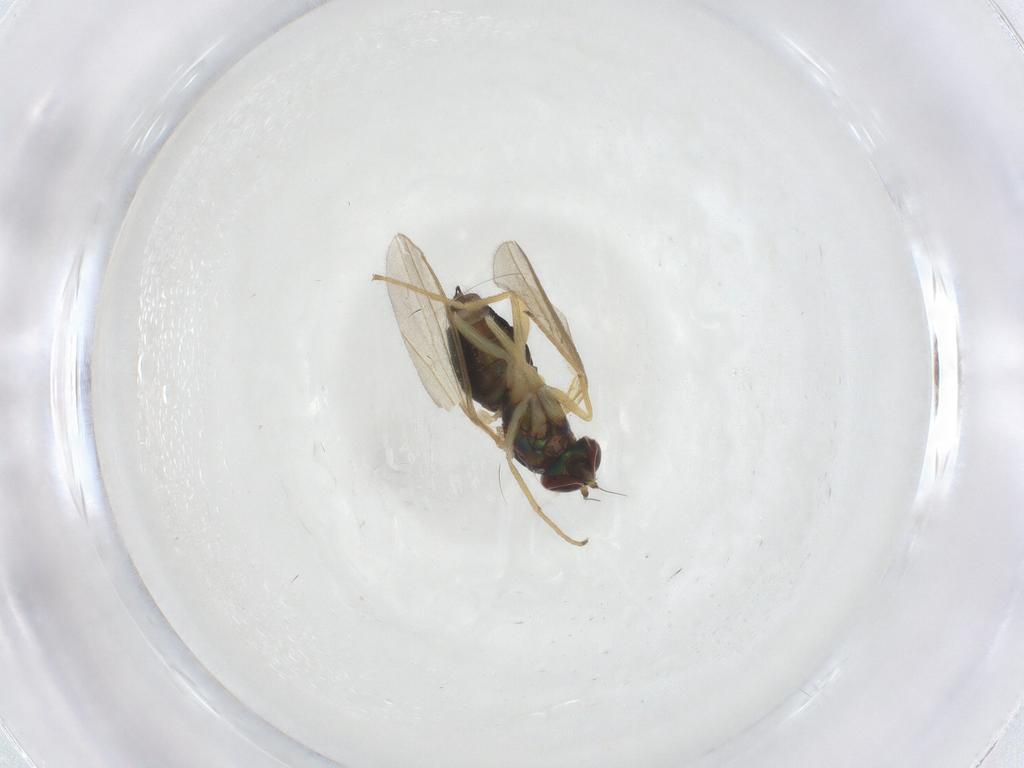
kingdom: Animalia
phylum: Arthropoda
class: Insecta
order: Diptera
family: Dolichopodidae
